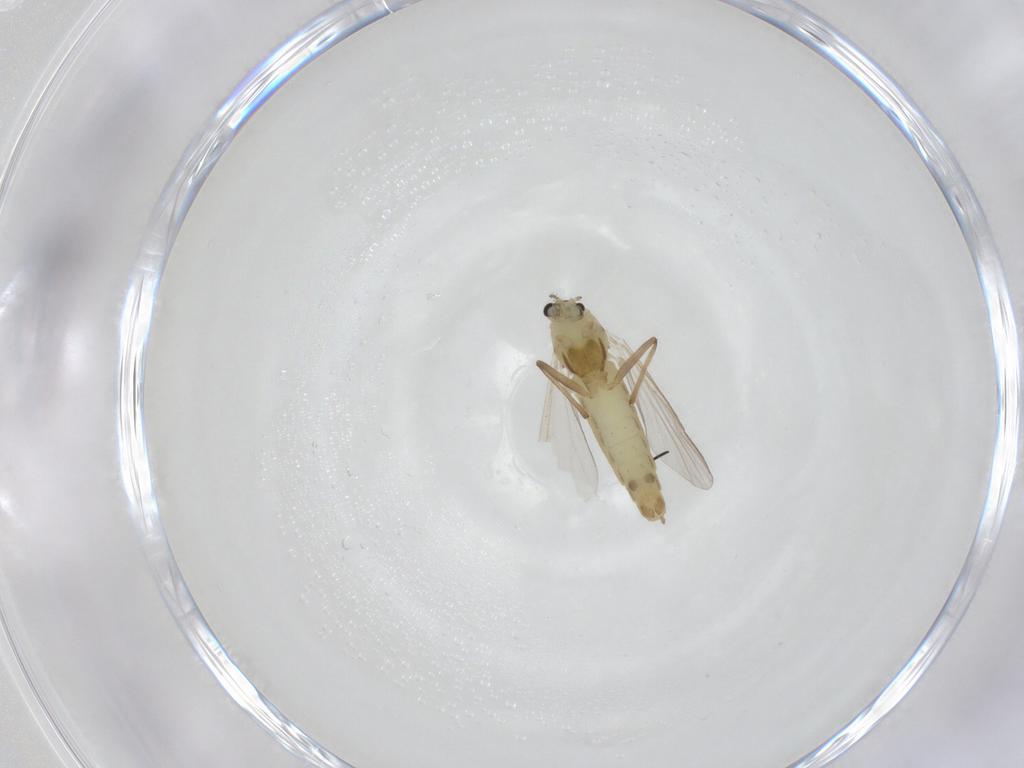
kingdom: Animalia
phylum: Arthropoda
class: Insecta
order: Diptera
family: Chironomidae
